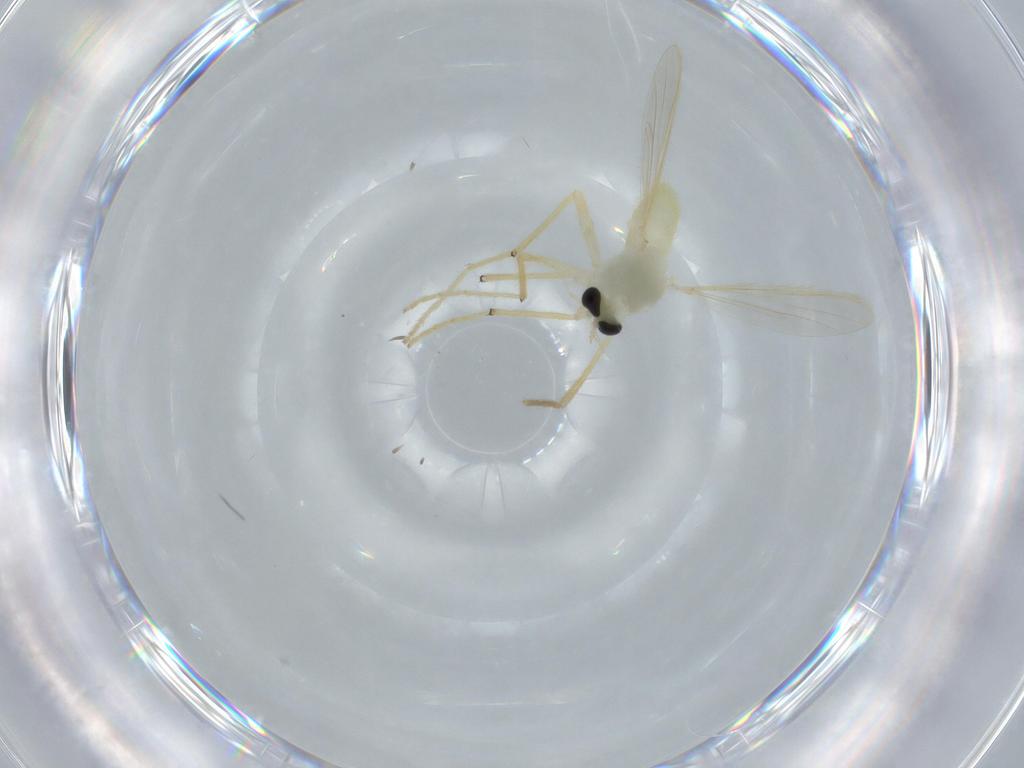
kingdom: Animalia
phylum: Arthropoda
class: Insecta
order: Diptera
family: Chironomidae
